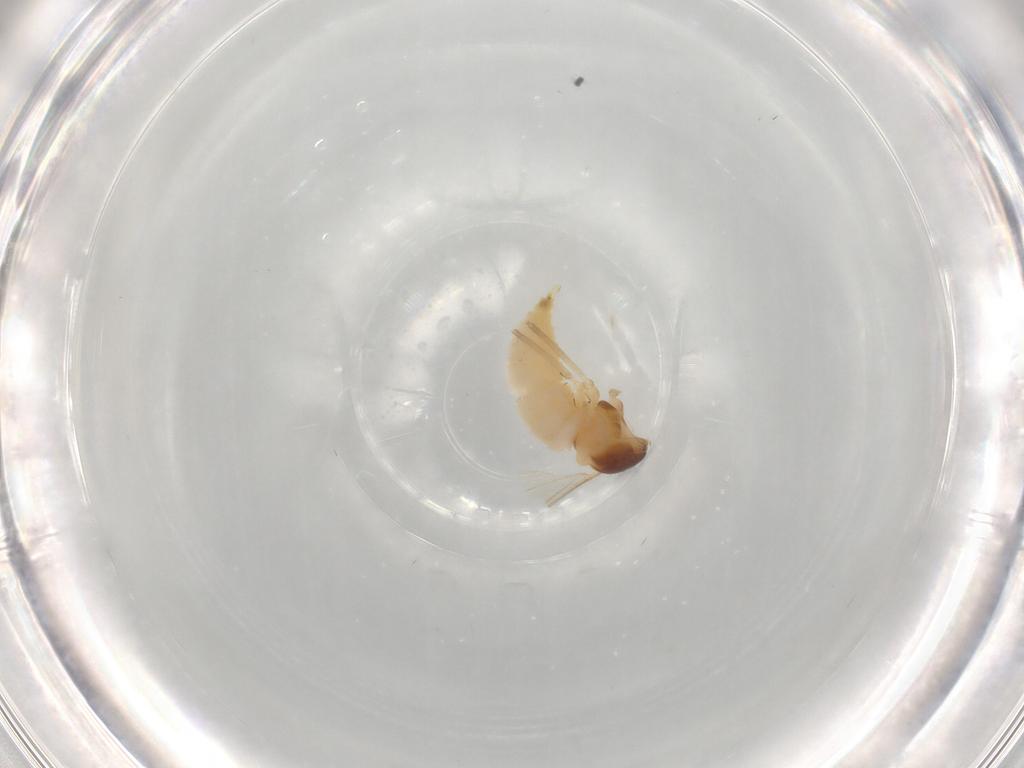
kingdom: Animalia
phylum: Arthropoda
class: Insecta
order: Diptera
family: Cecidomyiidae
